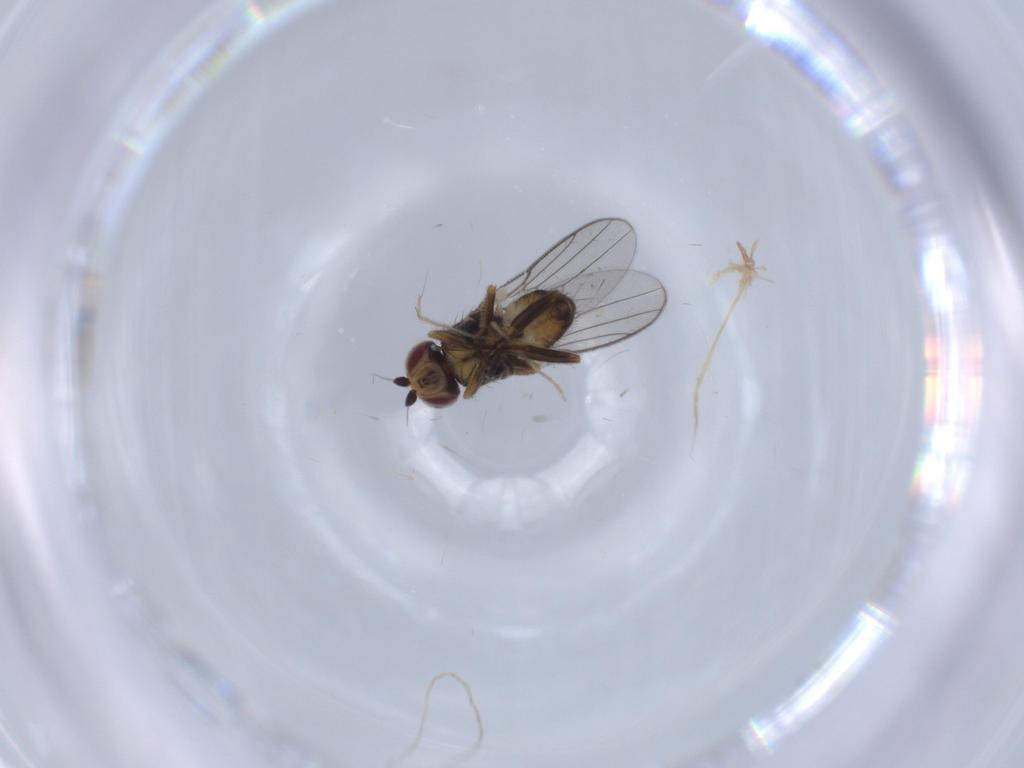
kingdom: Animalia
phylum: Arthropoda
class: Insecta
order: Diptera
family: Chloropidae
